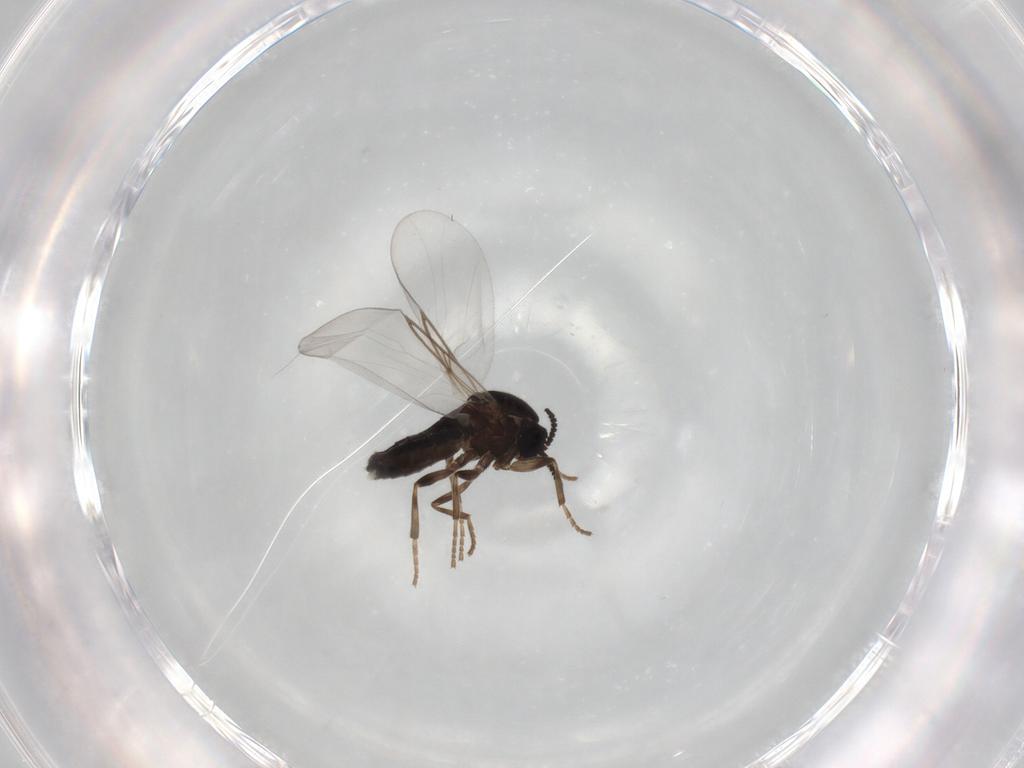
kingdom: Animalia
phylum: Arthropoda
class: Insecta
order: Diptera
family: Scatopsidae
